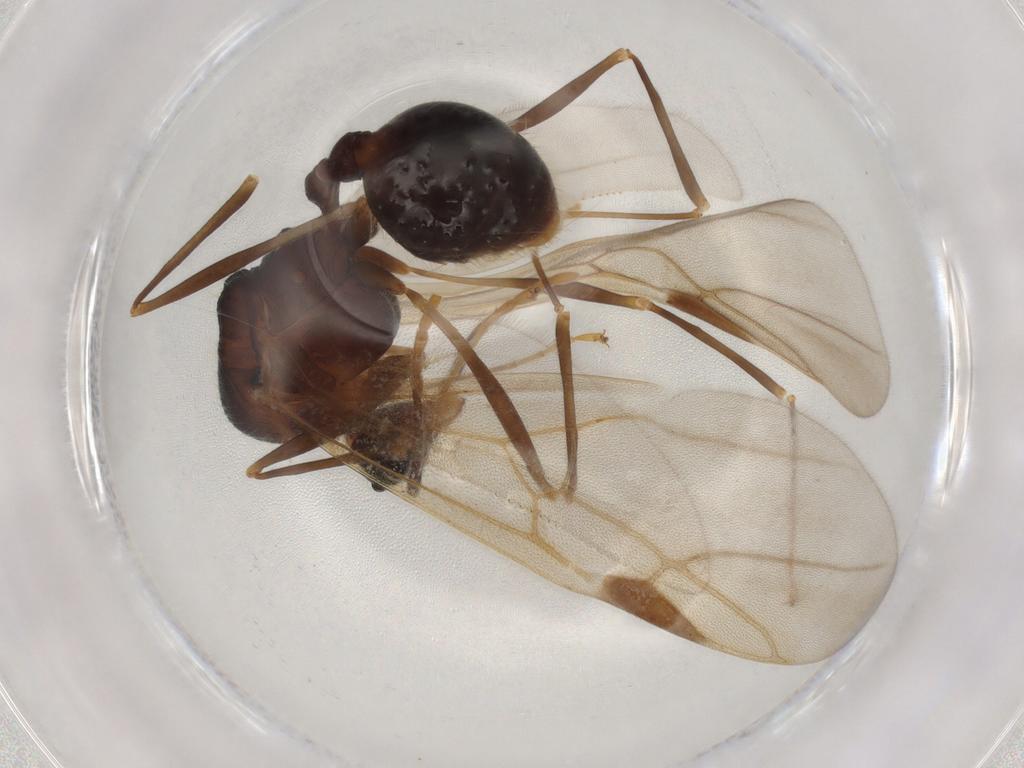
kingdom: Animalia
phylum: Arthropoda
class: Insecta
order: Hymenoptera
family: Formicidae
